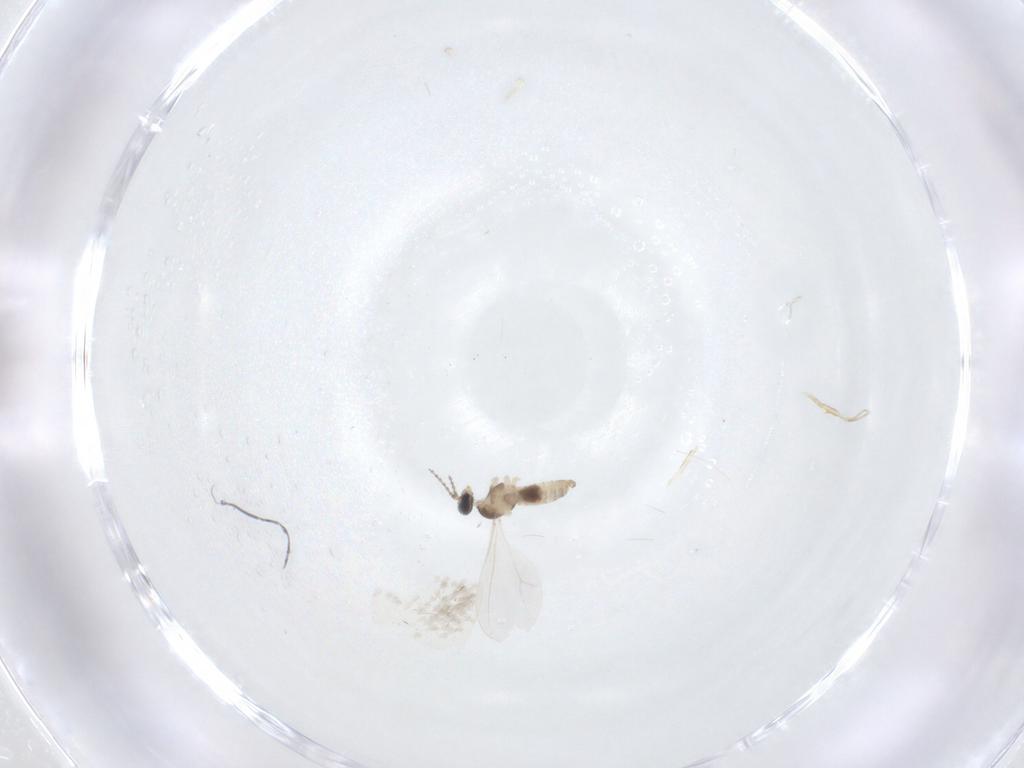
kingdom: Animalia
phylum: Arthropoda
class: Insecta
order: Diptera
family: Cecidomyiidae
